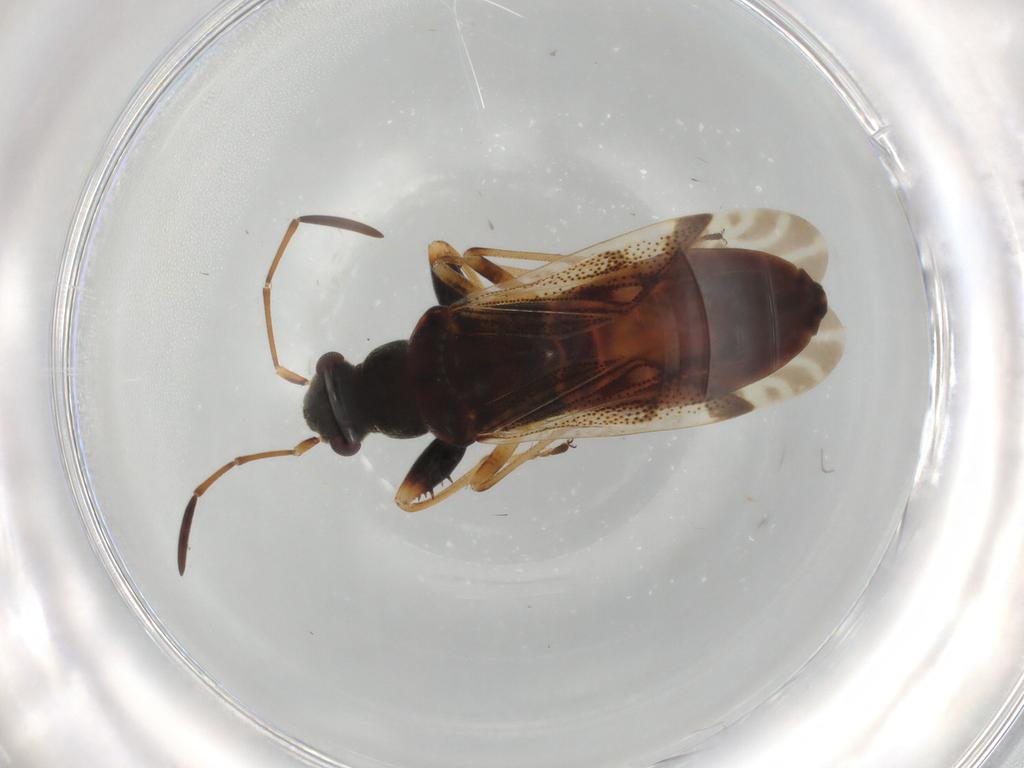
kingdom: Animalia
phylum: Arthropoda
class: Insecta
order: Hemiptera
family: Rhyparochromidae
